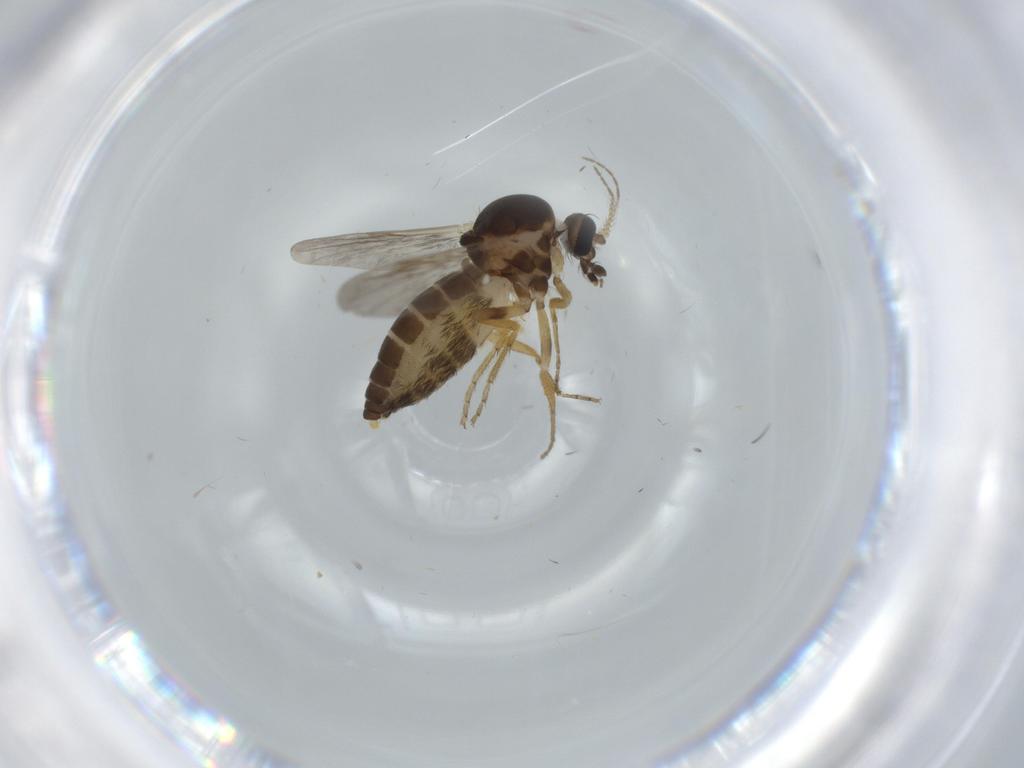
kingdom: Animalia
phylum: Arthropoda
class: Insecta
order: Diptera
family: Ceratopogonidae
